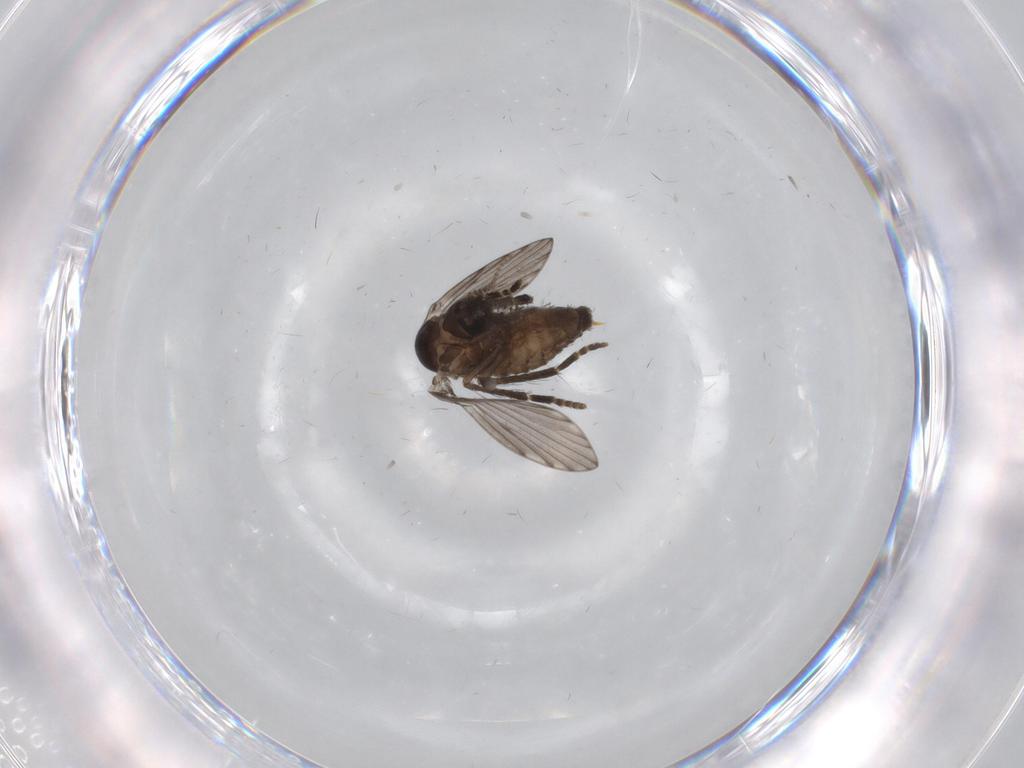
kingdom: Animalia
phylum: Arthropoda
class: Insecta
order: Diptera
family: Psychodidae
